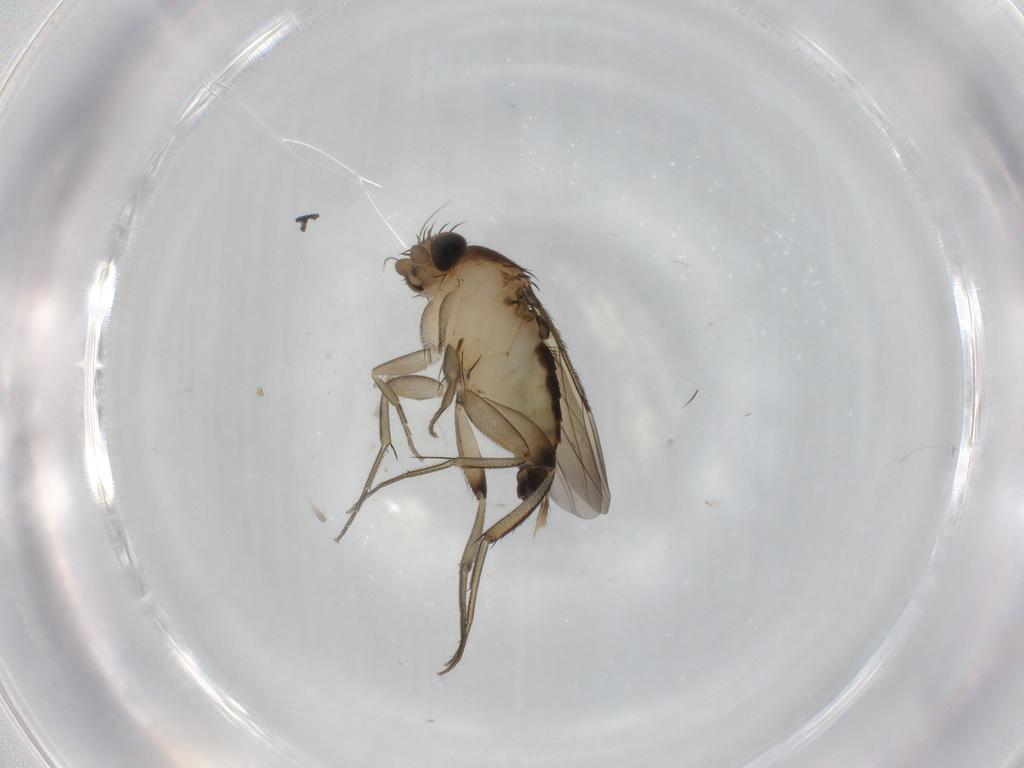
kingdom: Animalia
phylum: Arthropoda
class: Insecta
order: Diptera
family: Phoridae
